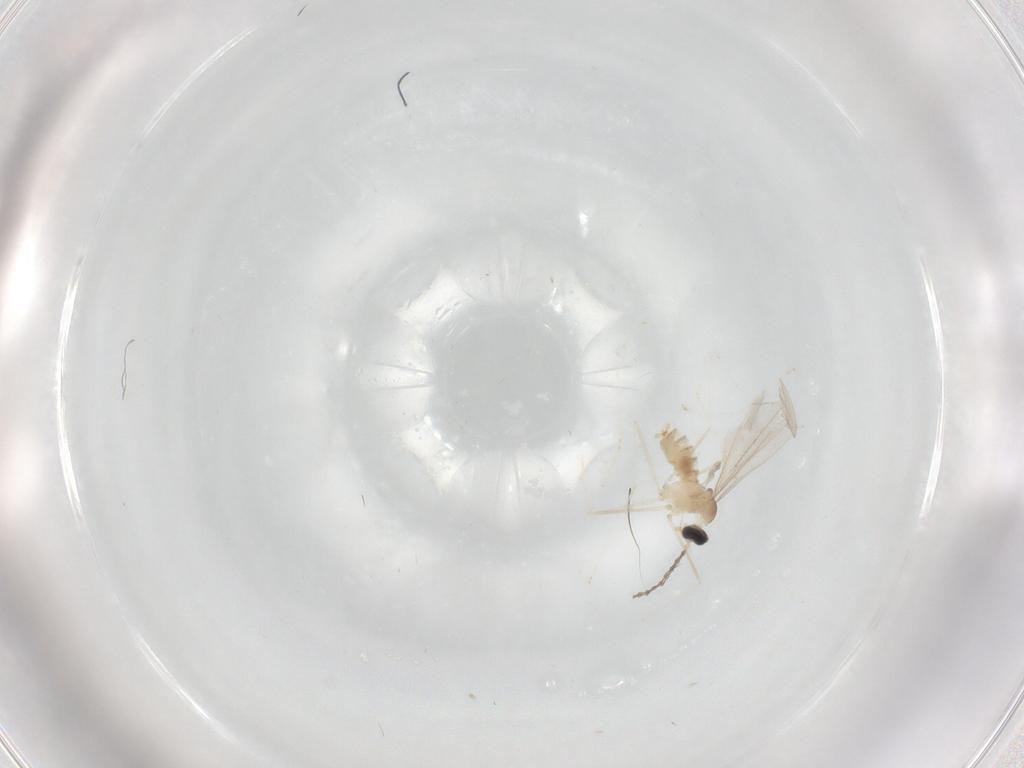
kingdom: Animalia
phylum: Arthropoda
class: Insecta
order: Diptera
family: Cecidomyiidae
